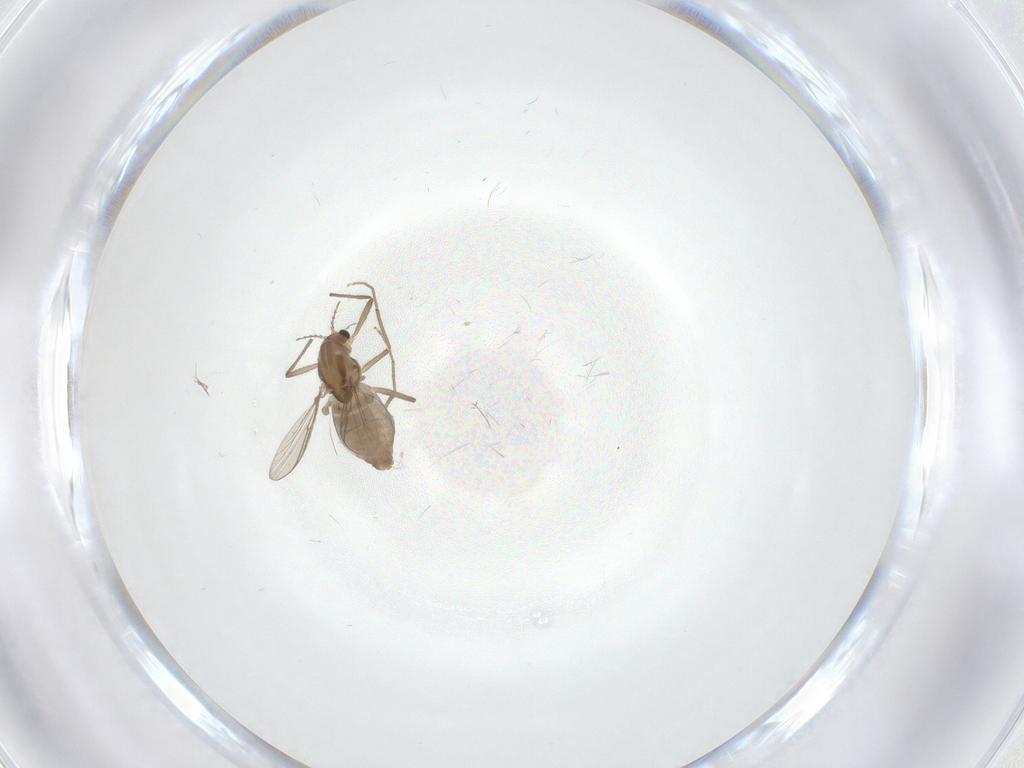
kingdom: Animalia
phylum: Arthropoda
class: Insecta
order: Diptera
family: Chironomidae
